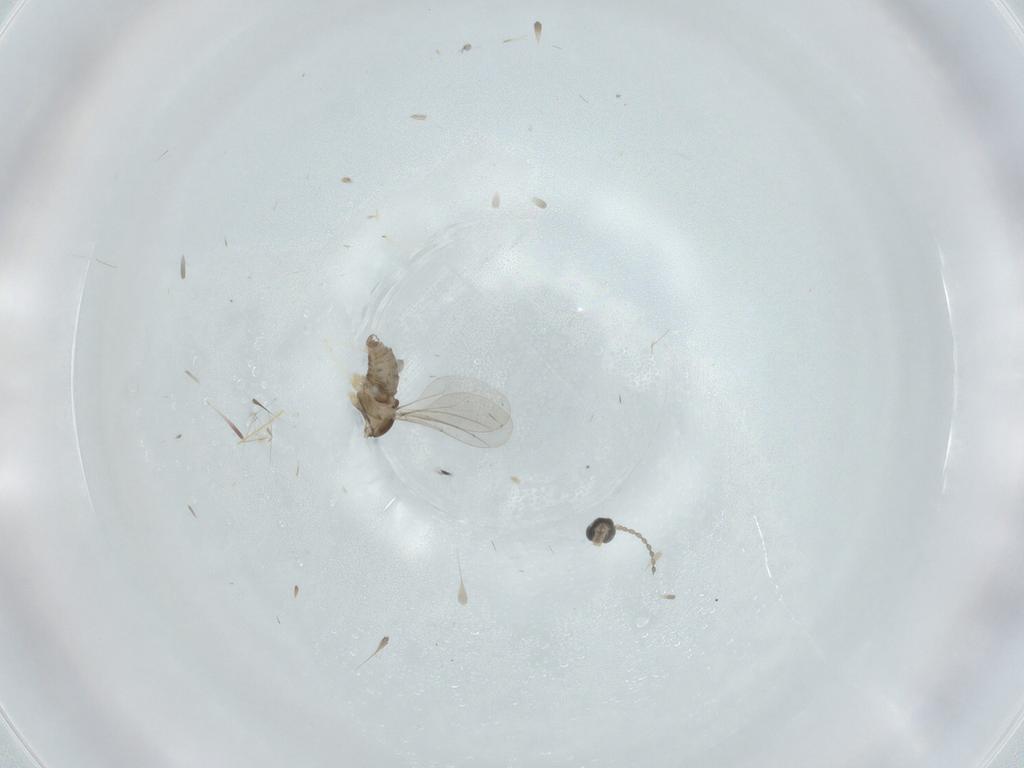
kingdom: Animalia
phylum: Arthropoda
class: Insecta
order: Diptera
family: Cecidomyiidae
